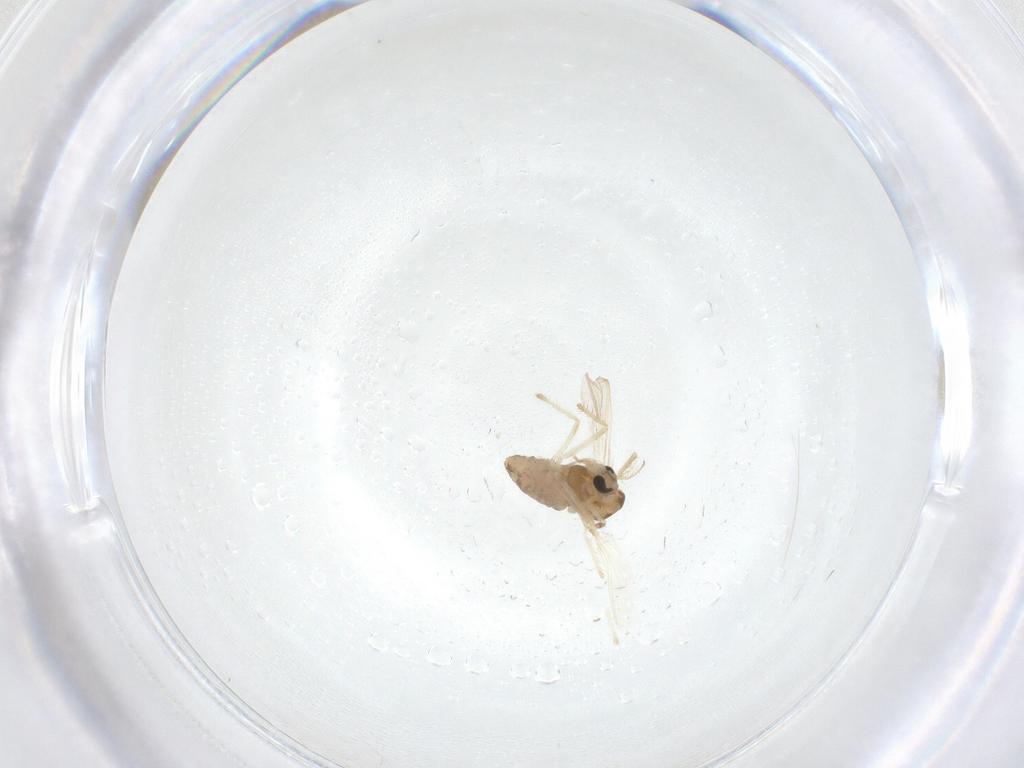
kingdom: Animalia
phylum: Arthropoda
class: Insecta
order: Diptera
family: Chironomidae
